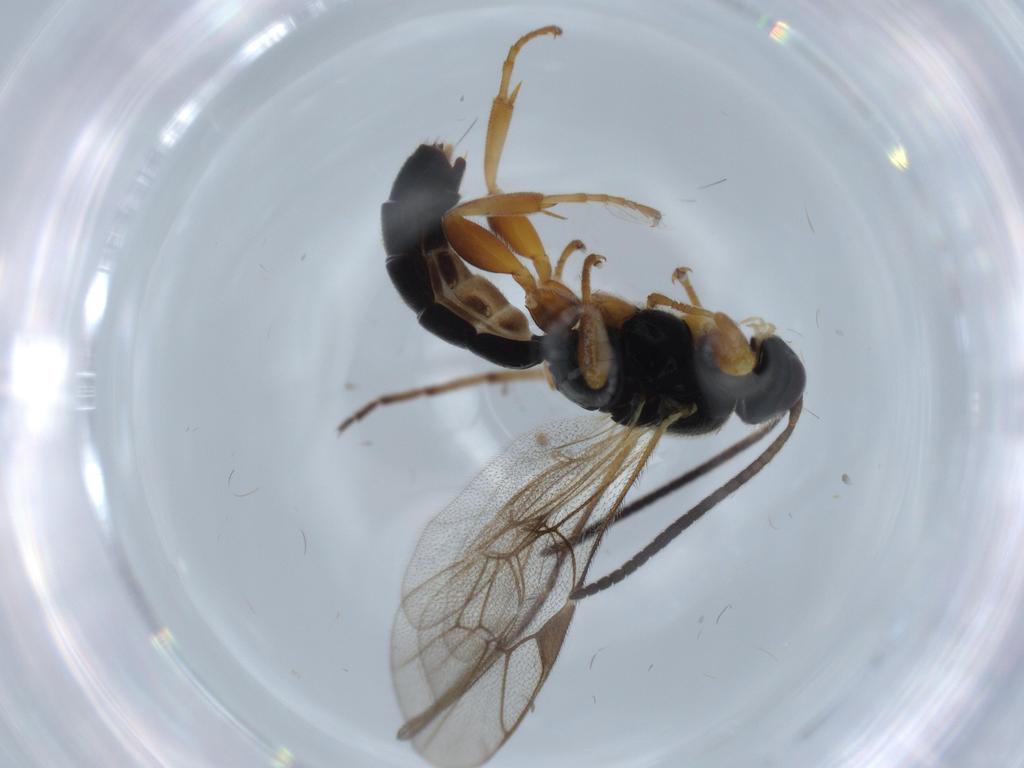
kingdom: Animalia
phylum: Arthropoda
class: Insecta
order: Hymenoptera
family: Ichneumonidae
